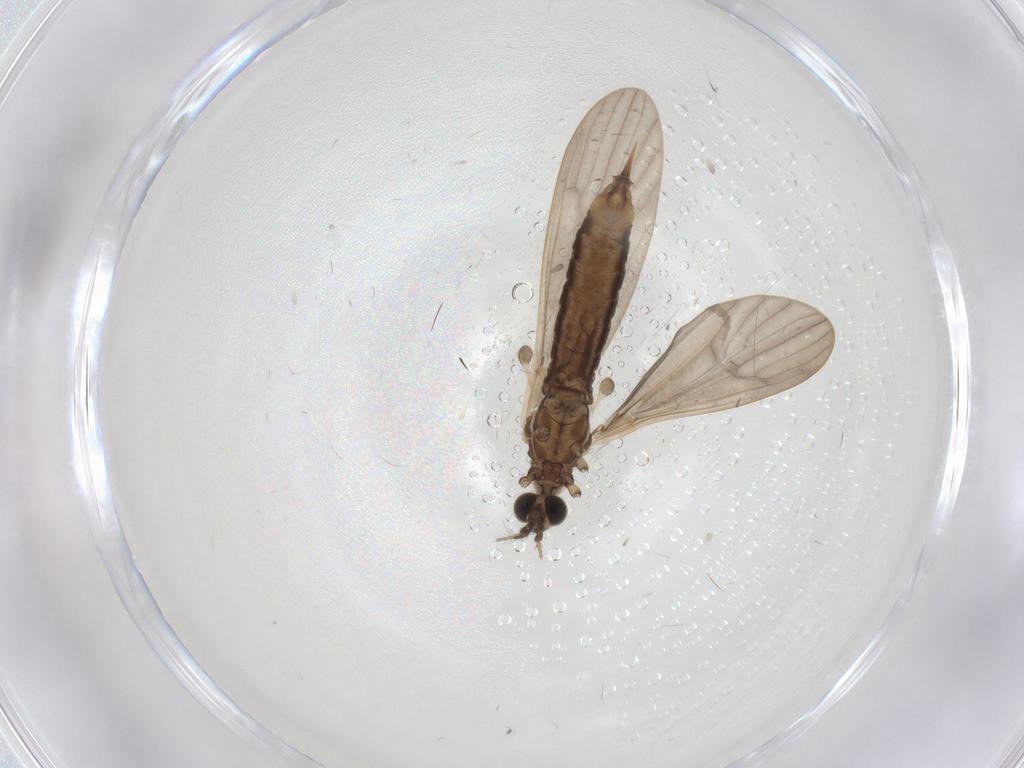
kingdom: Animalia
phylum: Arthropoda
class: Insecta
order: Diptera
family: Limoniidae
